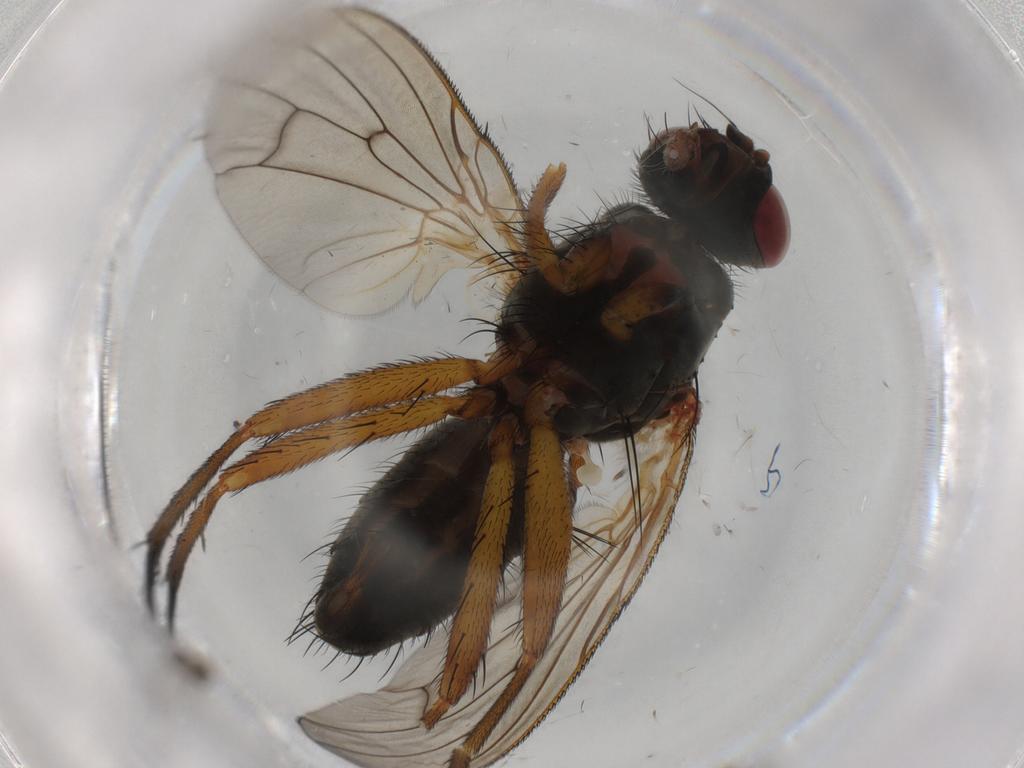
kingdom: Animalia
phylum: Arthropoda
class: Insecta
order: Diptera
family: Anthomyiidae
